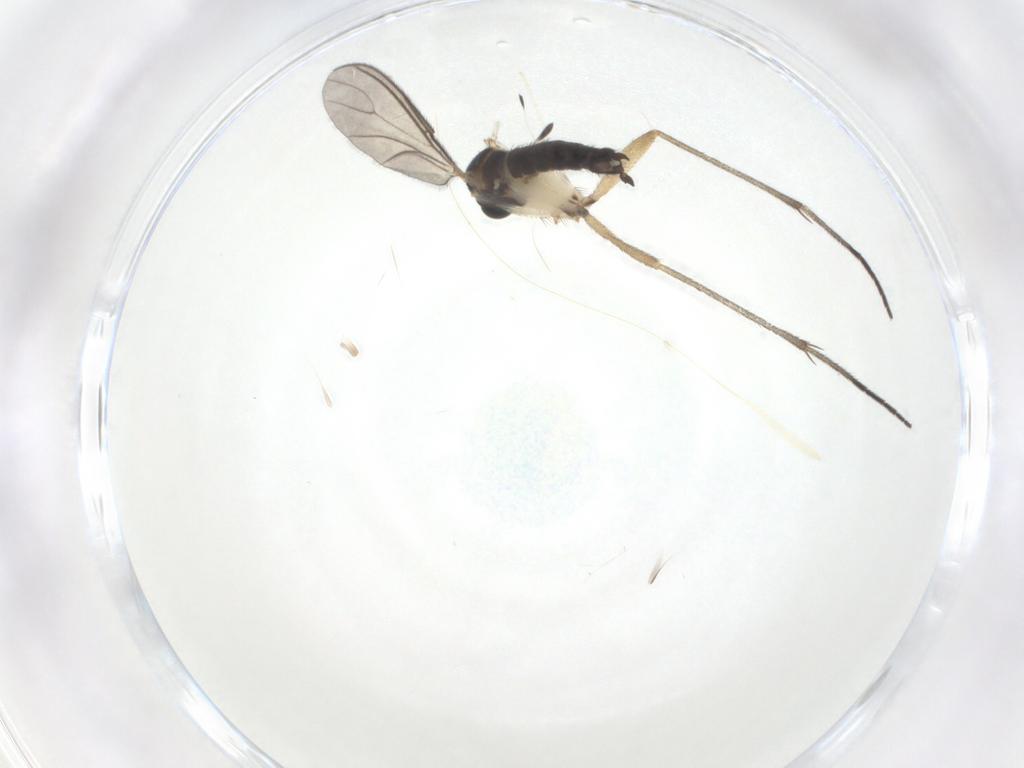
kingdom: Animalia
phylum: Arthropoda
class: Insecta
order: Diptera
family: Sciaridae
